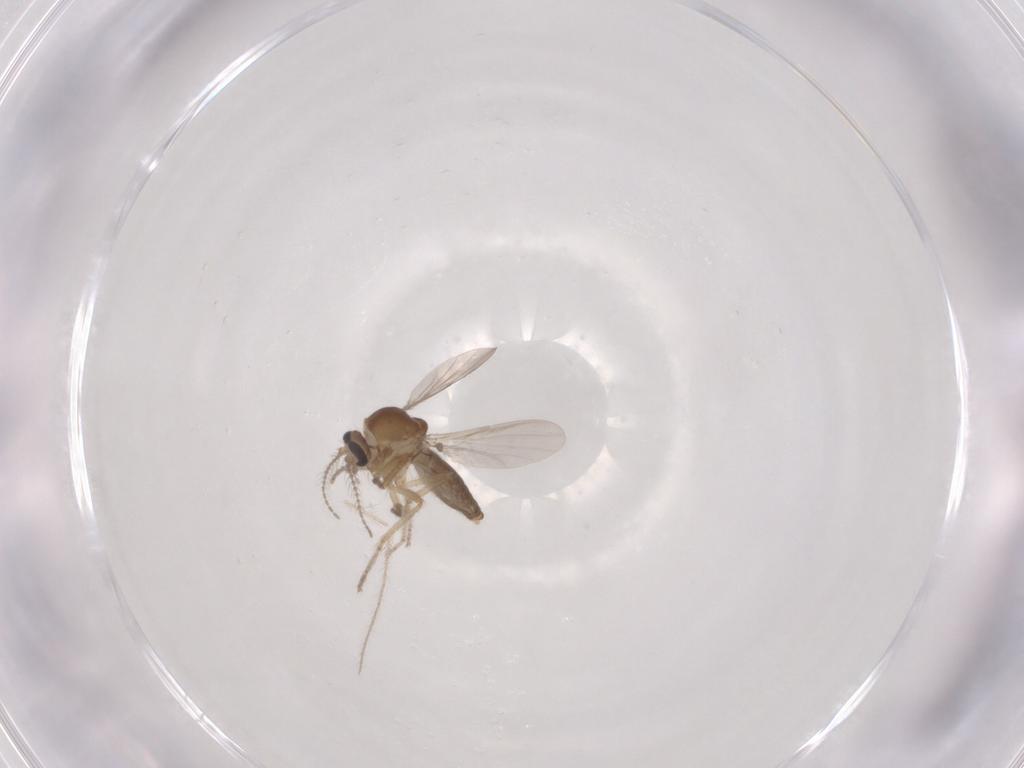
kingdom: Animalia
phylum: Arthropoda
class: Insecta
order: Diptera
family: Ceratopogonidae
